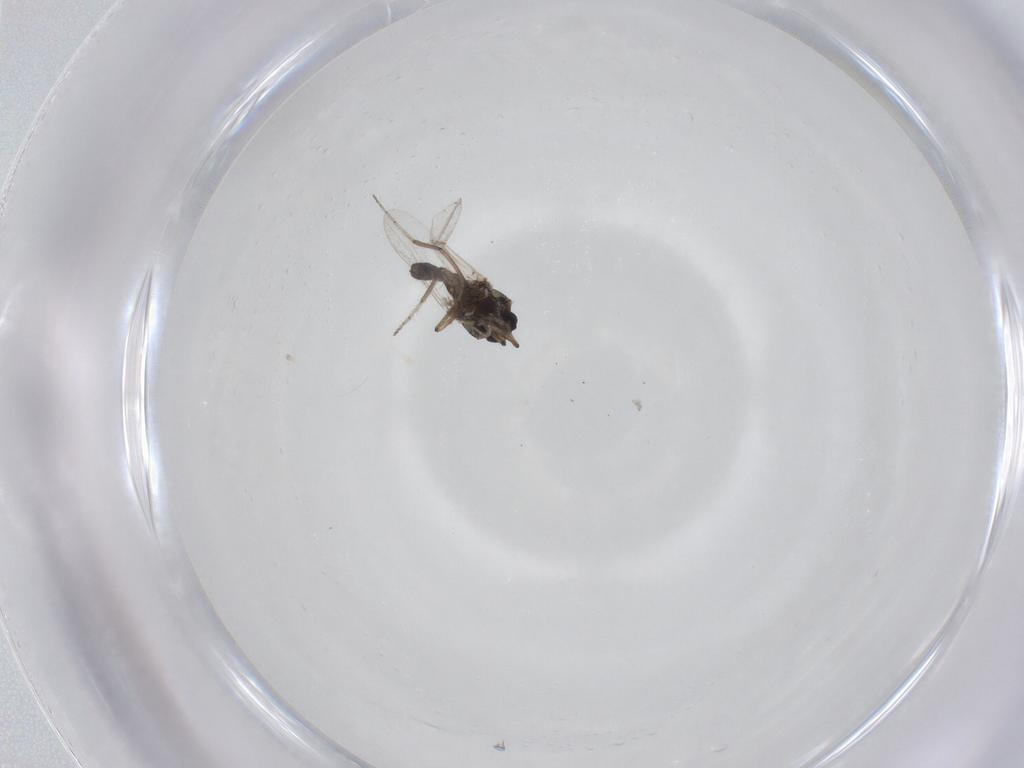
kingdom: Animalia
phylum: Arthropoda
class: Insecta
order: Diptera
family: Ceratopogonidae
